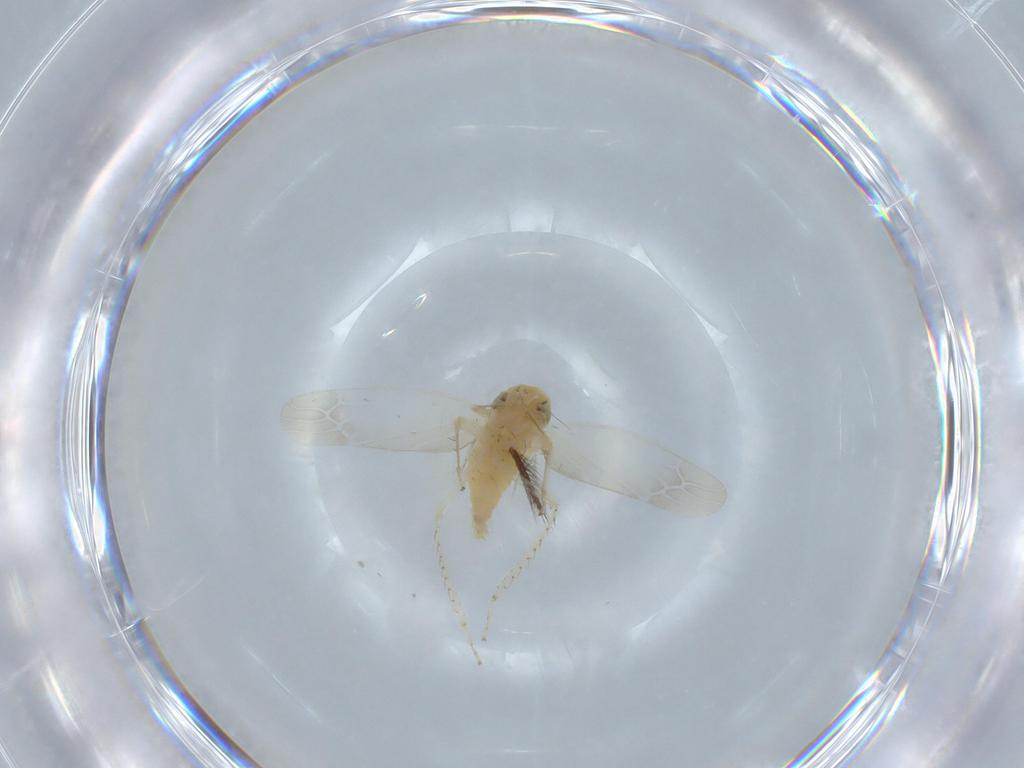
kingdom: Animalia
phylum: Arthropoda
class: Insecta
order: Hemiptera
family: Cicadellidae
